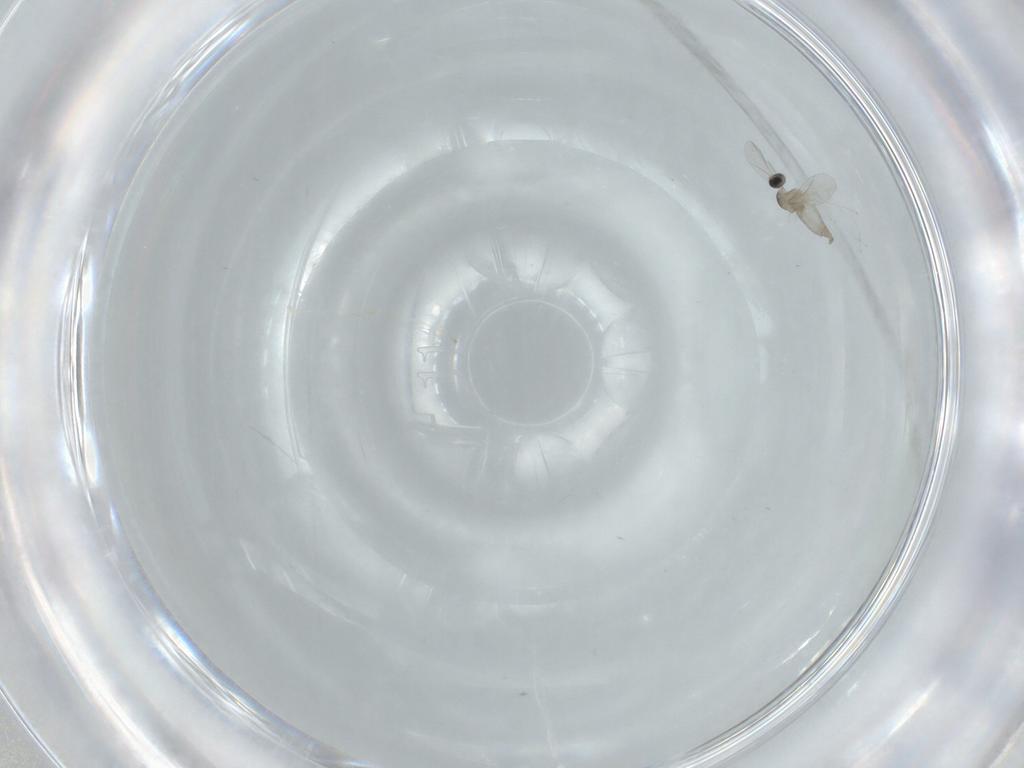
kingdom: Animalia
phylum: Arthropoda
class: Insecta
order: Diptera
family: Cecidomyiidae
